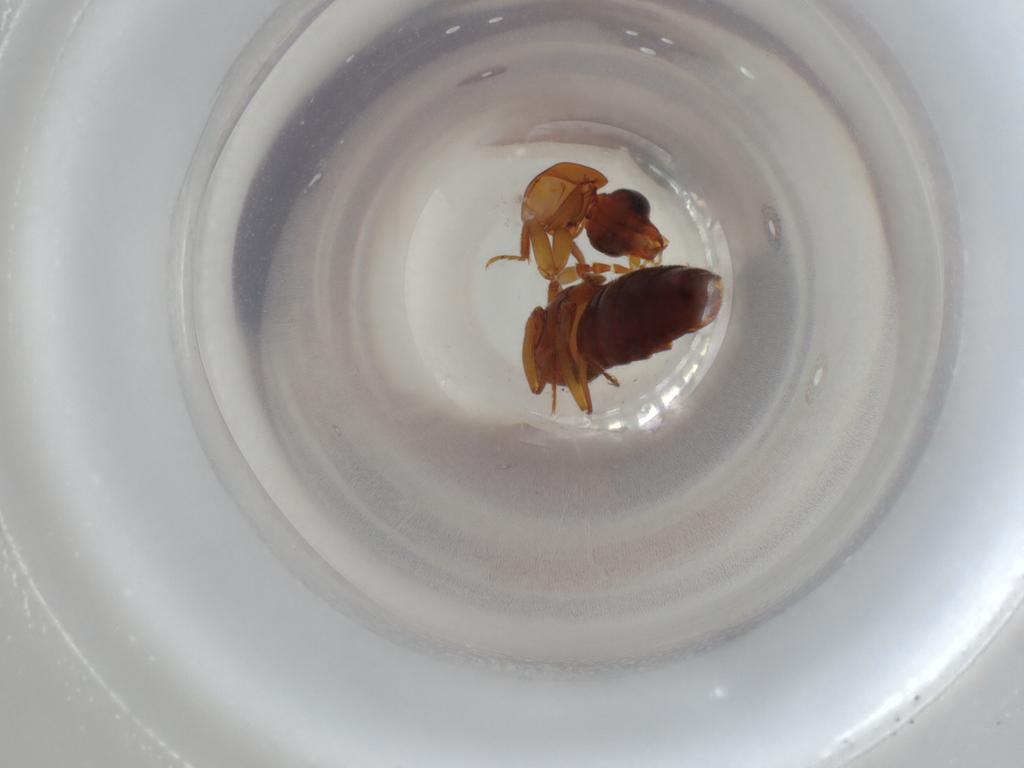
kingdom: Animalia
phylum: Arthropoda
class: Insecta
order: Coleoptera
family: Staphylinidae
